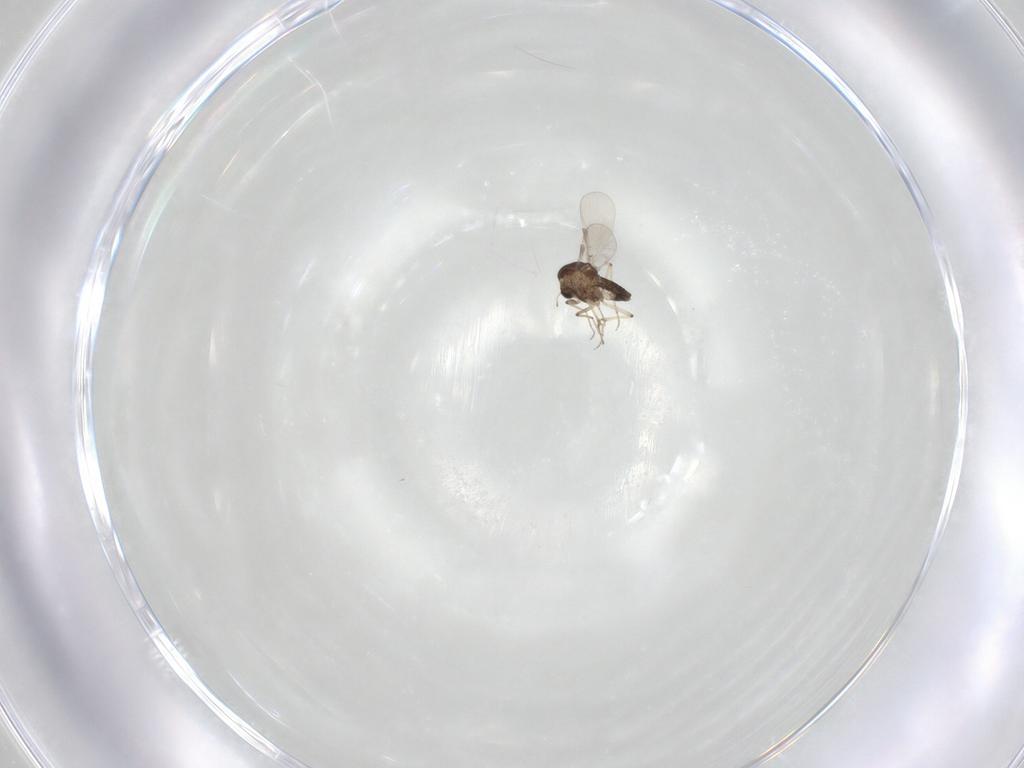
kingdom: Animalia
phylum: Arthropoda
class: Insecta
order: Diptera
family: Chironomidae
